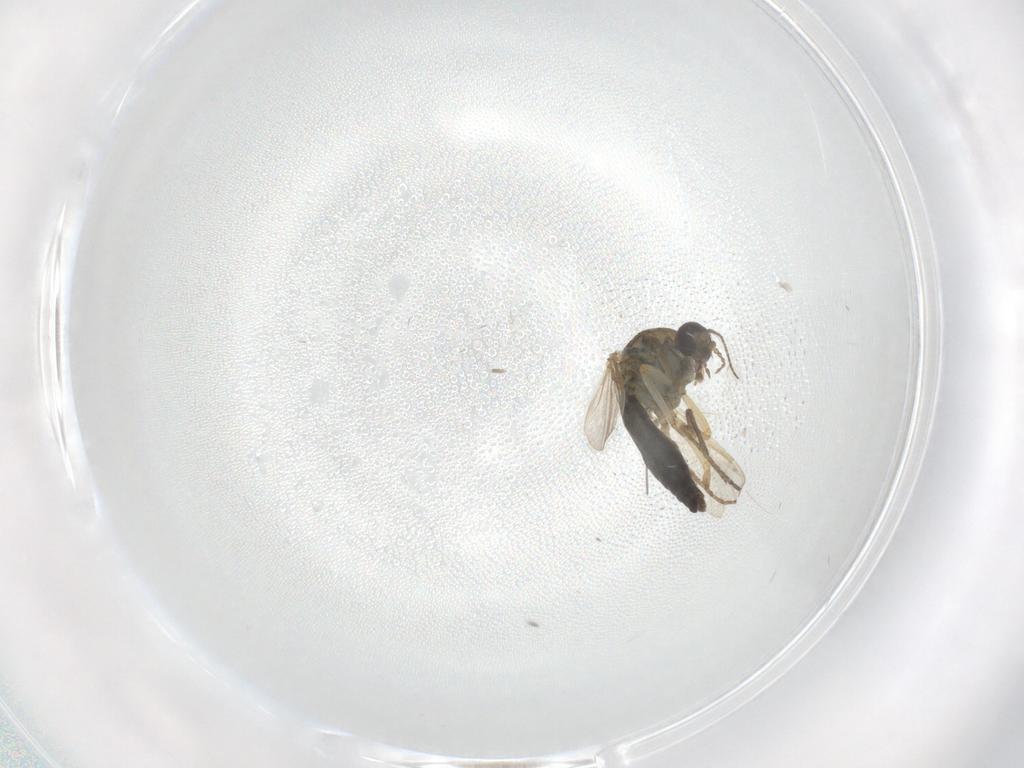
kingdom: Animalia
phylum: Arthropoda
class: Insecta
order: Diptera
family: Ceratopogonidae
